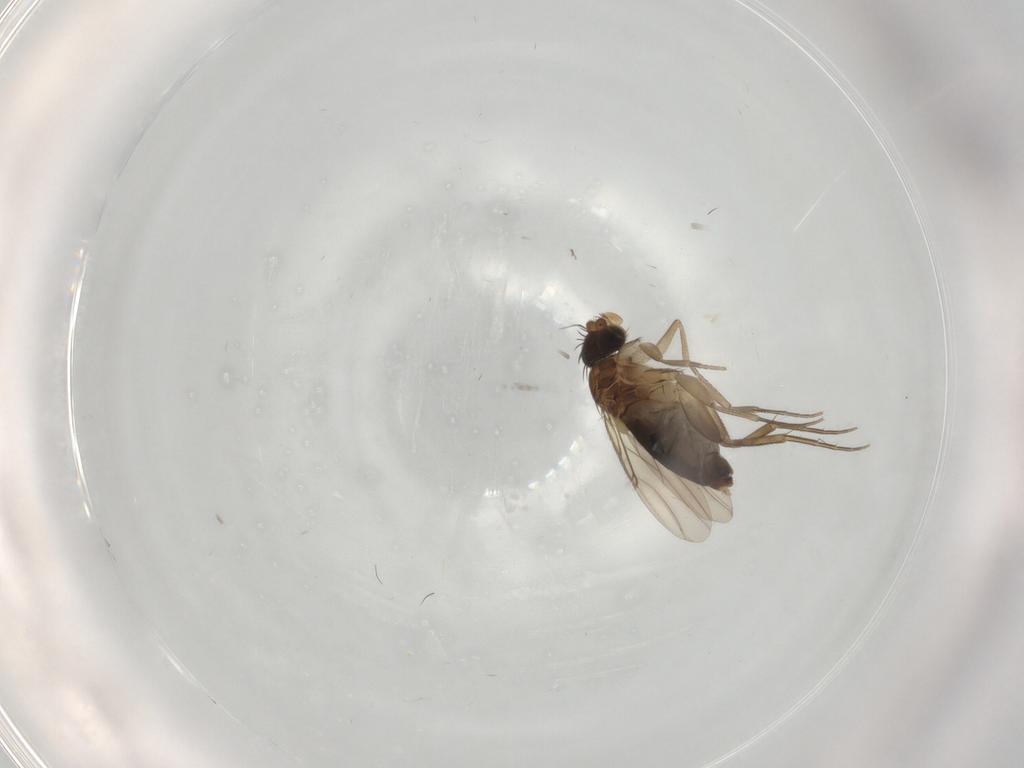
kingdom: Animalia
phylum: Arthropoda
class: Insecta
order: Diptera
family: Phoridae
